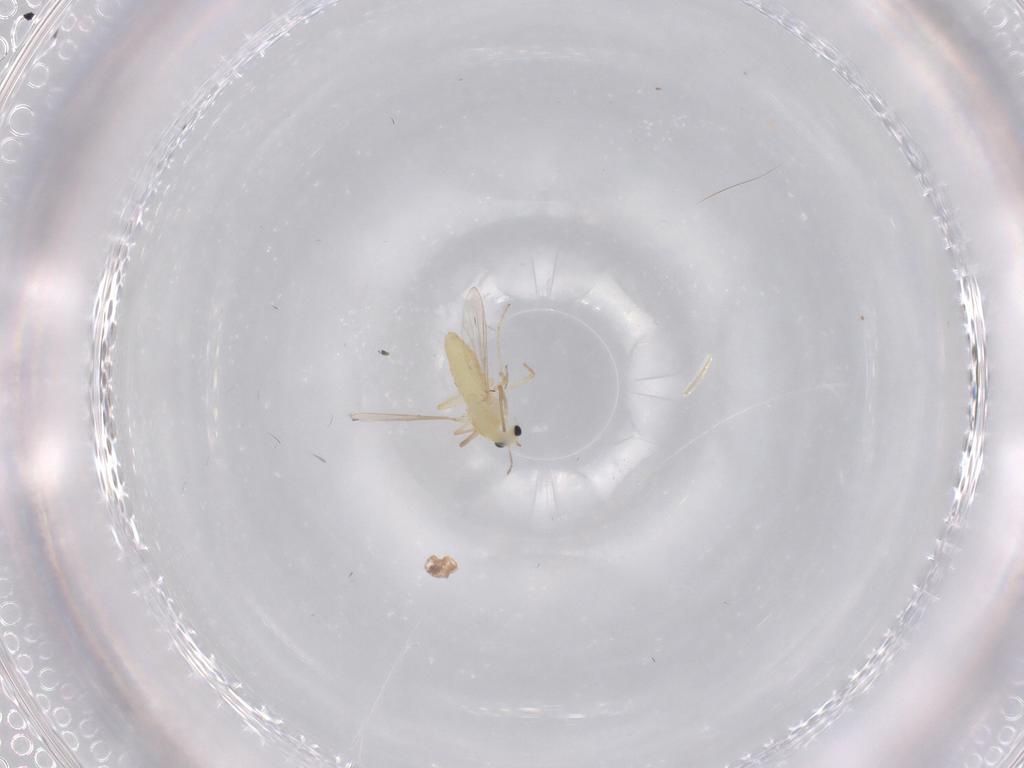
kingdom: Animalia
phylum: Arthropoda
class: Insecta
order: Diptera
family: Chironomidae
